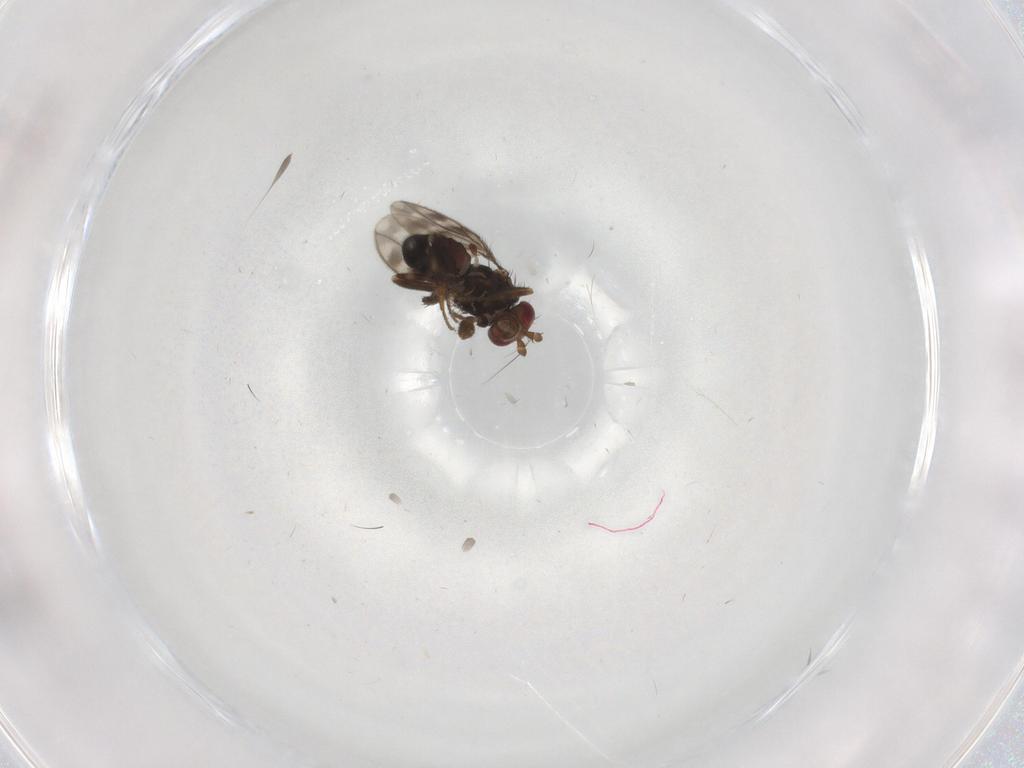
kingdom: Animalia
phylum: Arthropoda
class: Insecta
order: Diptera
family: Sphaeroceridae
